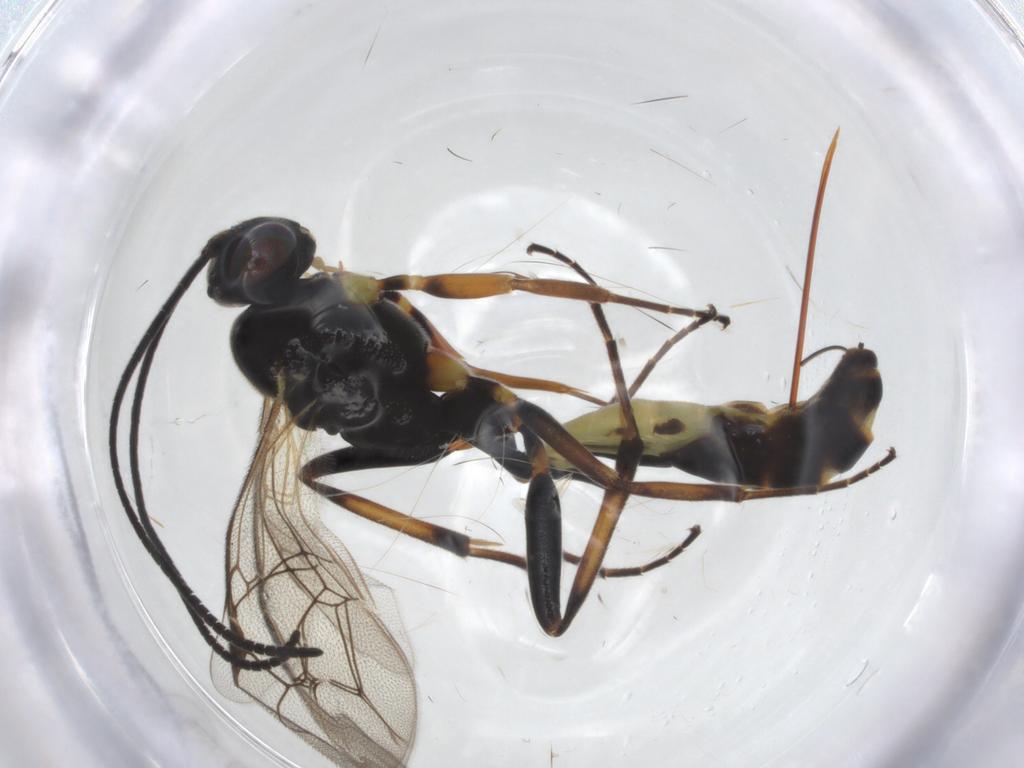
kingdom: Animalia
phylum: Arthropoda
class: Insecta
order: Hymenoptera
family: Ichneumonidae
